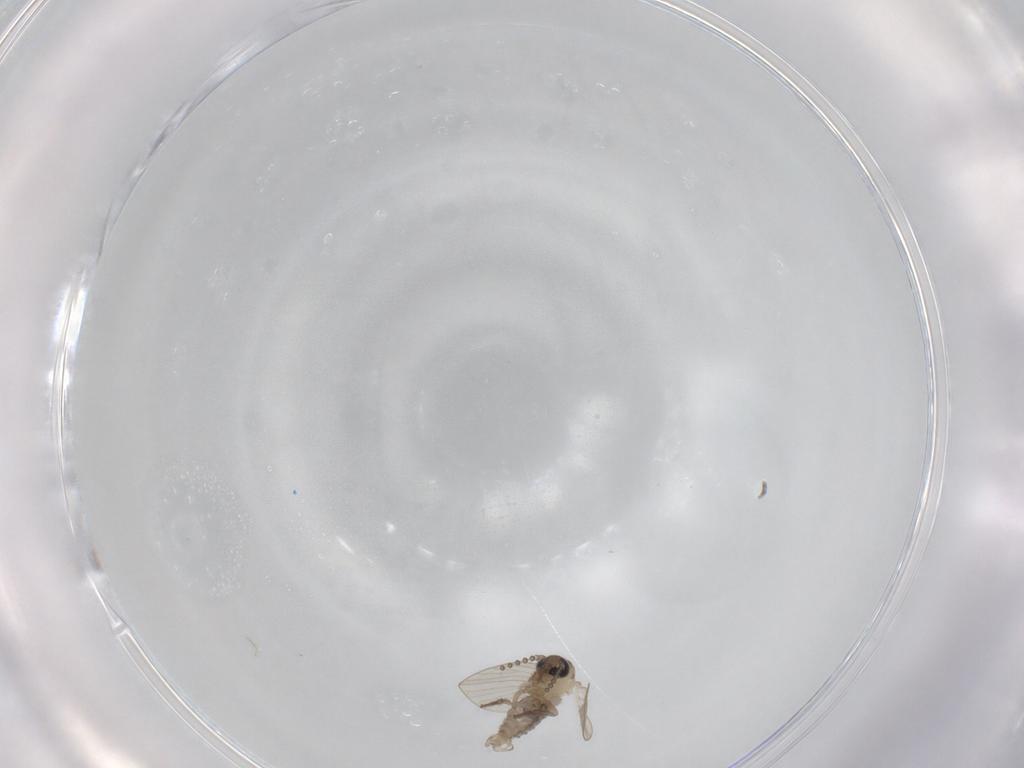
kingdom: Animalia
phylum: Arthropoda
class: Insecta
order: Diptera
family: Psychodidae
